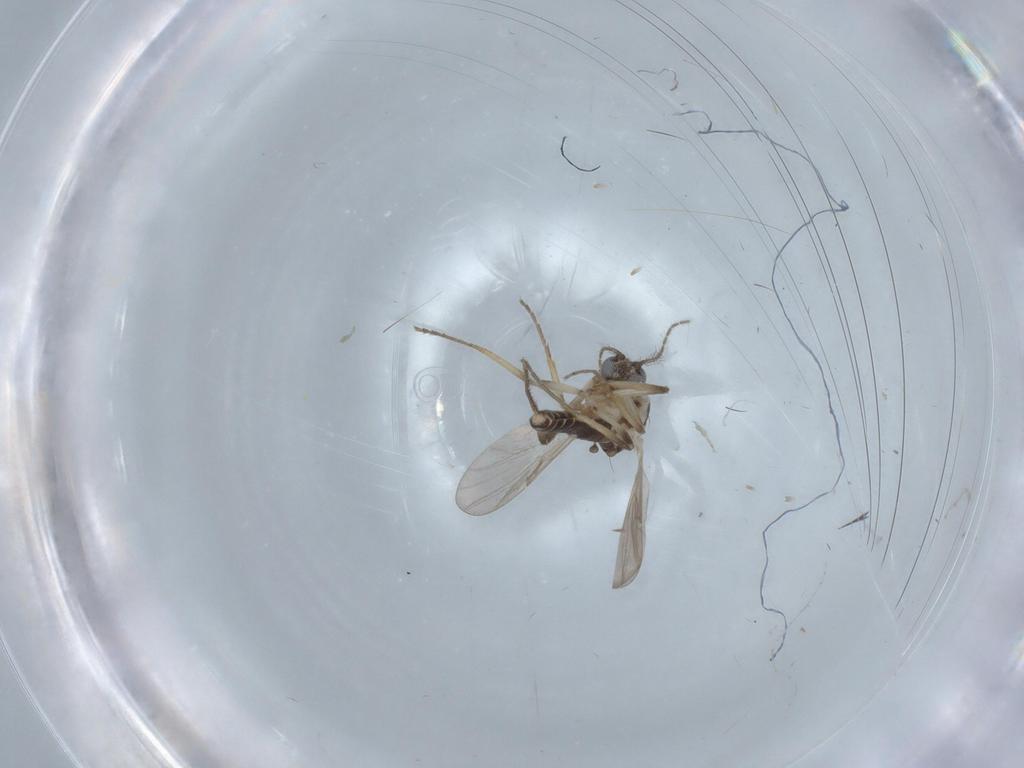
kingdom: Animalia
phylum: Arthropoda
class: Insecta
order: Diptera
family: Ceratopogonidae
